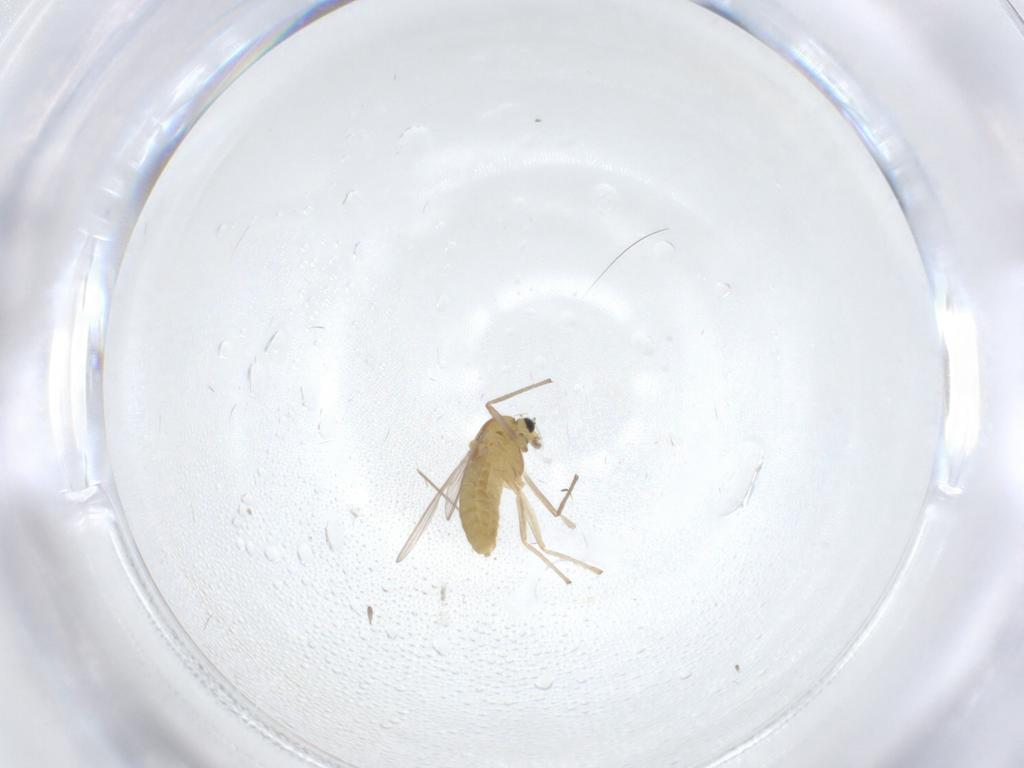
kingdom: Animalia
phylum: Arthropoda
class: Insecta
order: Diptera
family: Chironomidae
